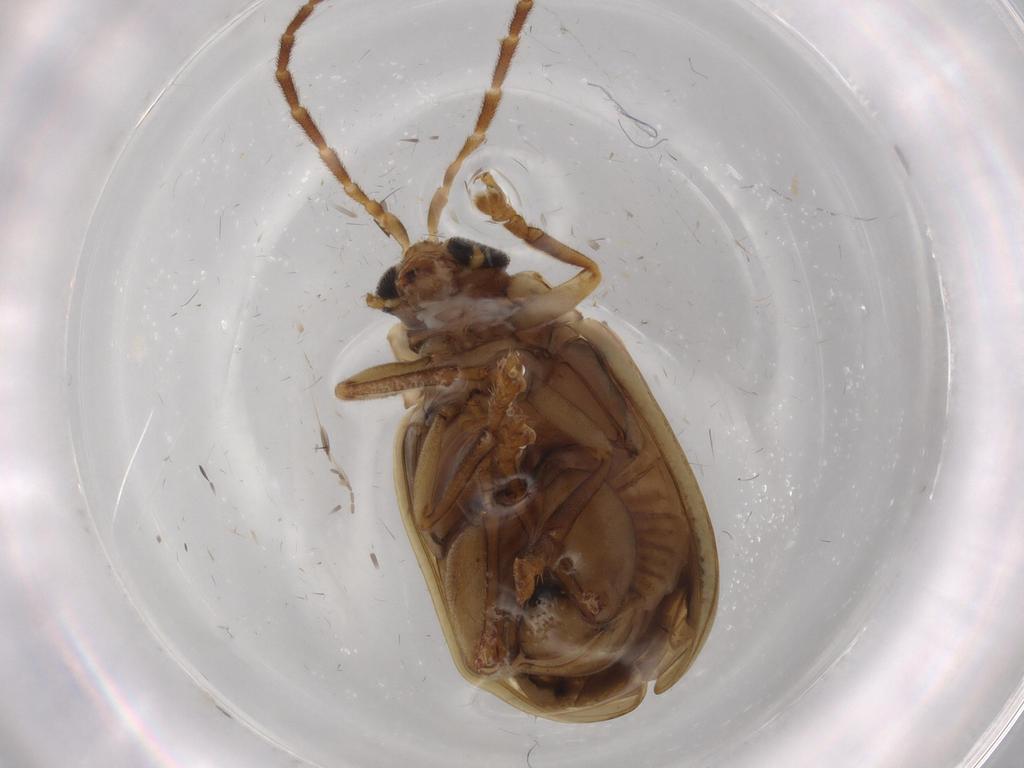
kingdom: Animalia
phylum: Arthropoda
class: Insecta
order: Coleoptera
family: Chrysomelidae
